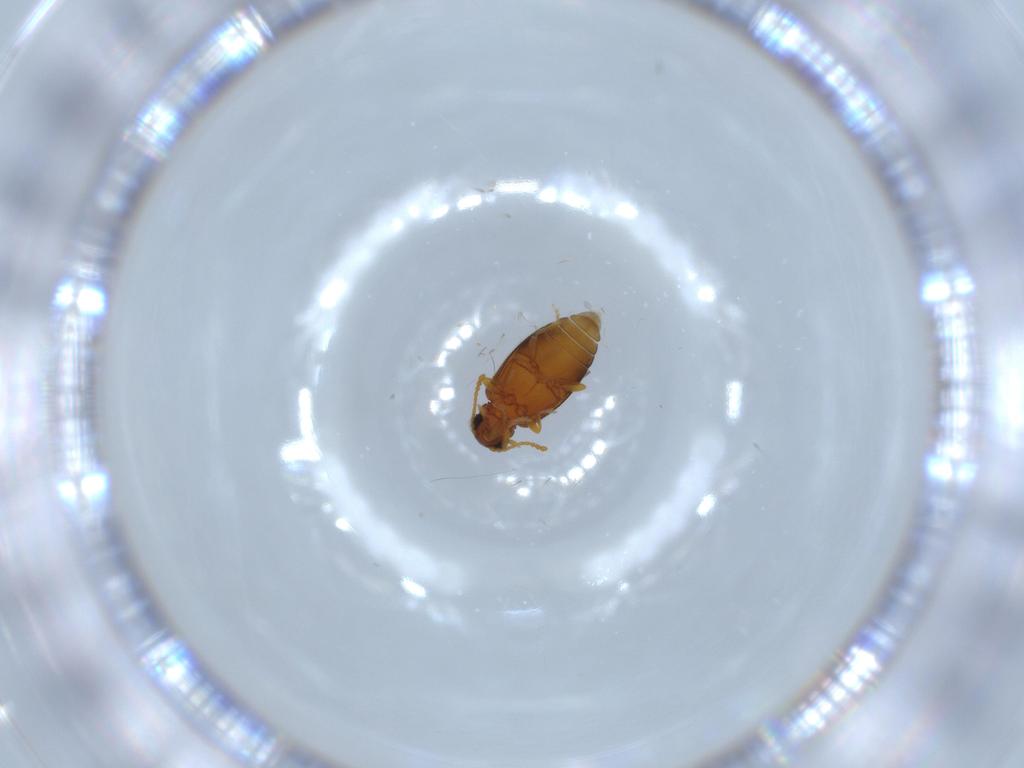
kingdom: Animalia
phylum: Arthropoda
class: Insecta
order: Coleoptera
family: Aderidae
